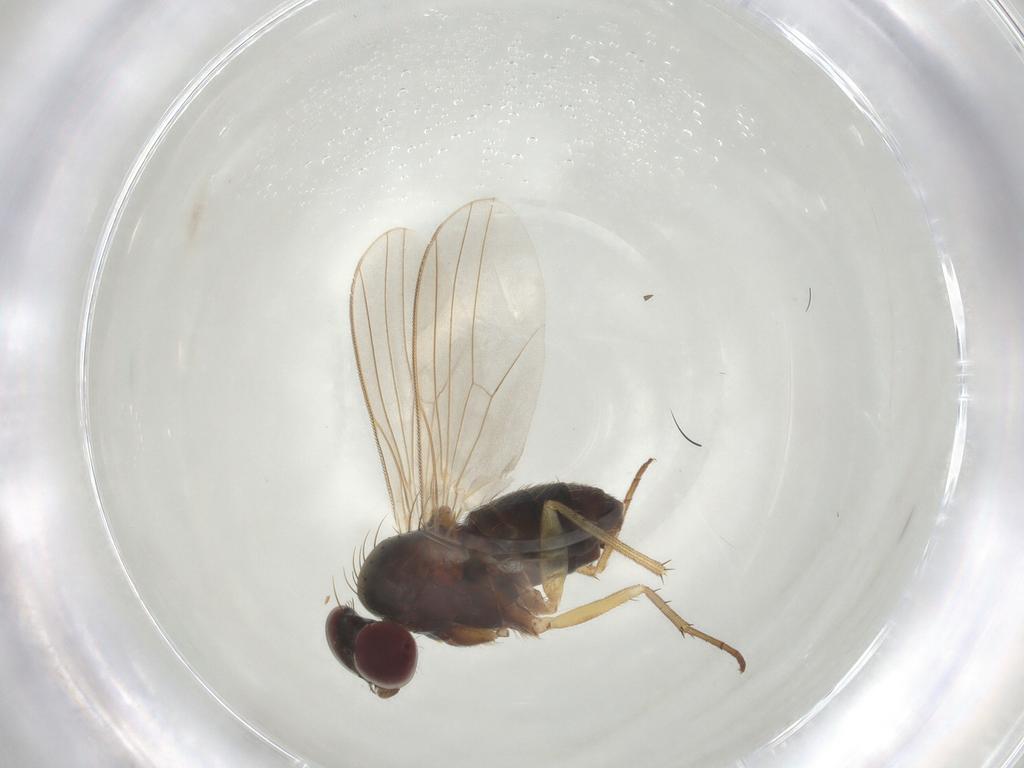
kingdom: Animalia
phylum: Arthropoda
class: Insecta
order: Diptera
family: Dolichopodidae
